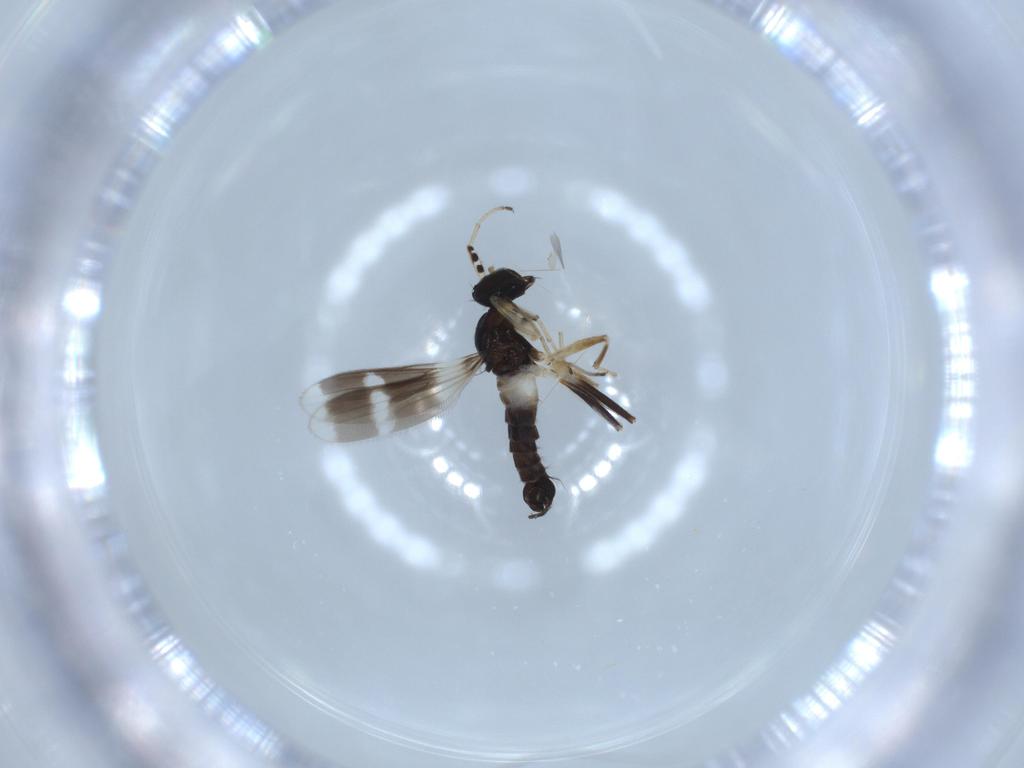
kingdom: Animalia
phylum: Arthropoda
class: Insecta
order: Diptera
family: Hybotidae
